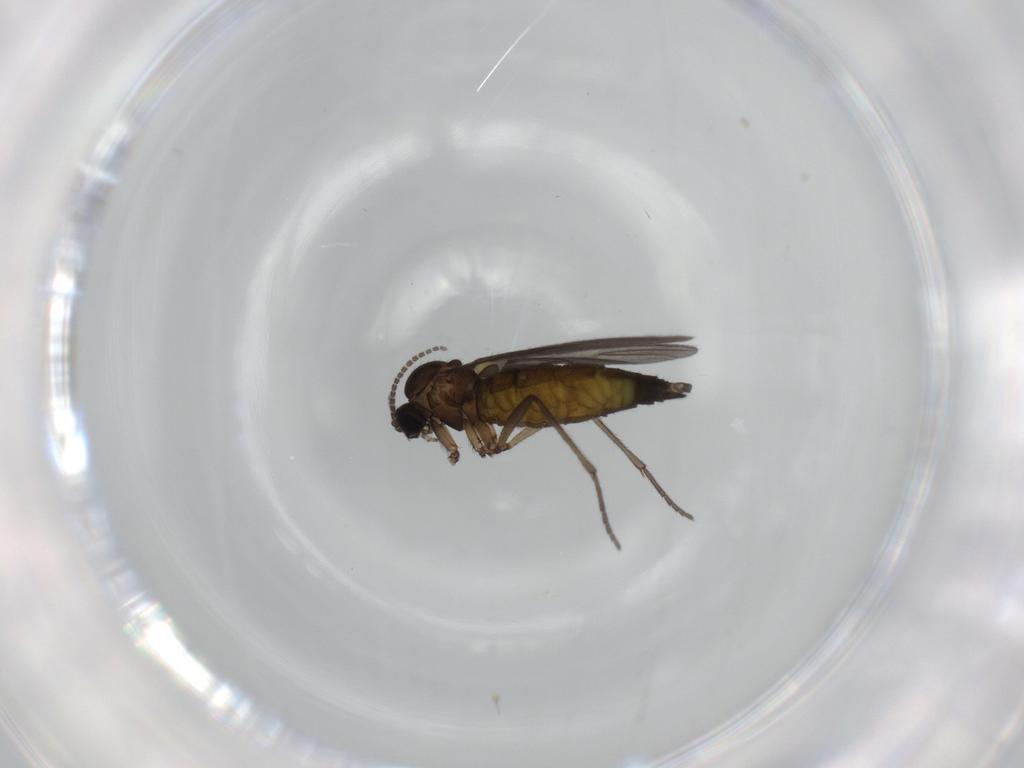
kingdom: Animalia
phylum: Arthropoda
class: Insecta
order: Diptera
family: Sciaridae
